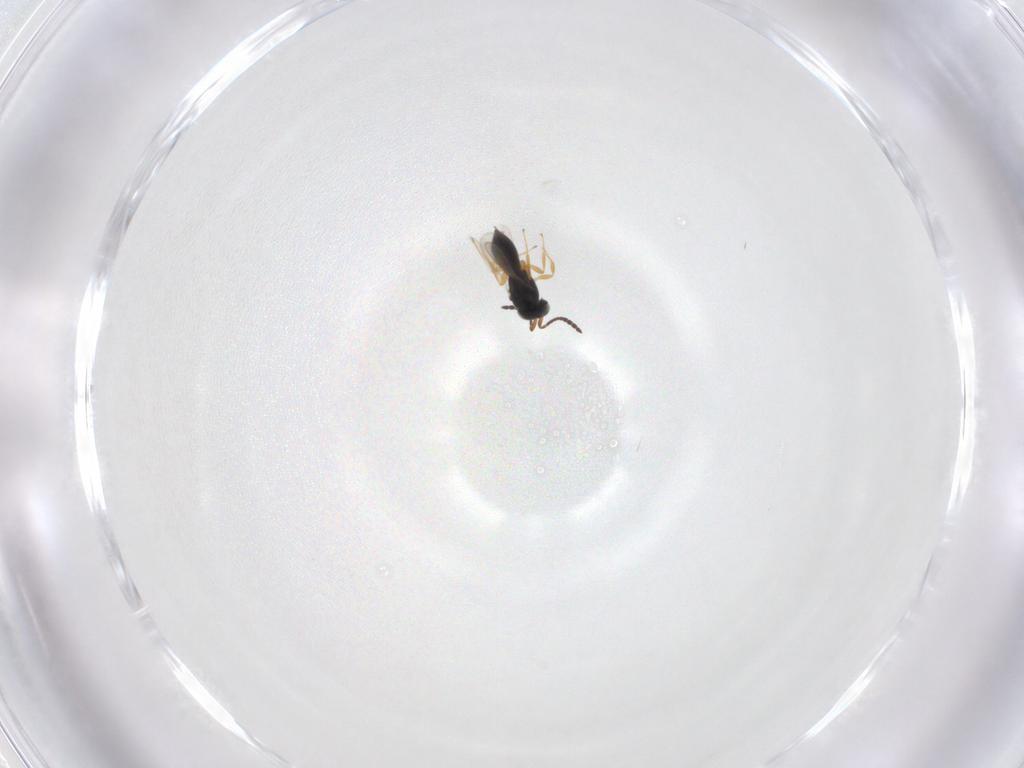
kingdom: Animalia
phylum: Arthropoda
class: Insecta
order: Hymenoptera
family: Scelionidae
